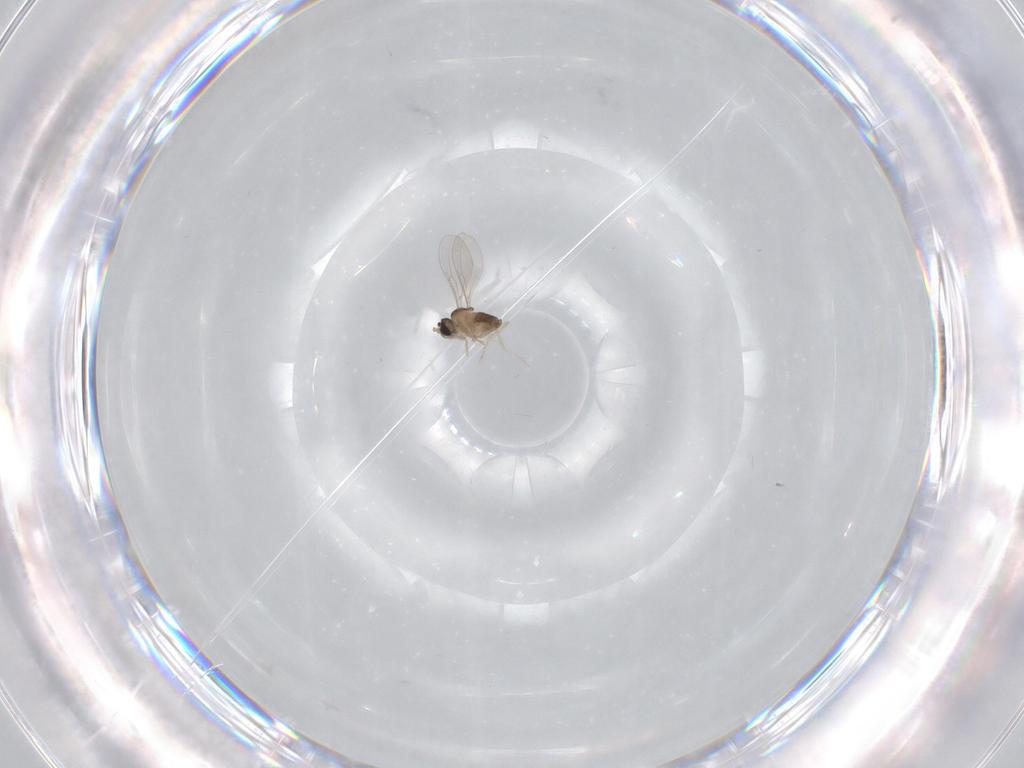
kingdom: Animalia
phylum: Arthropoda
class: Insecta
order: Diptera
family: Cecidomyiidae
